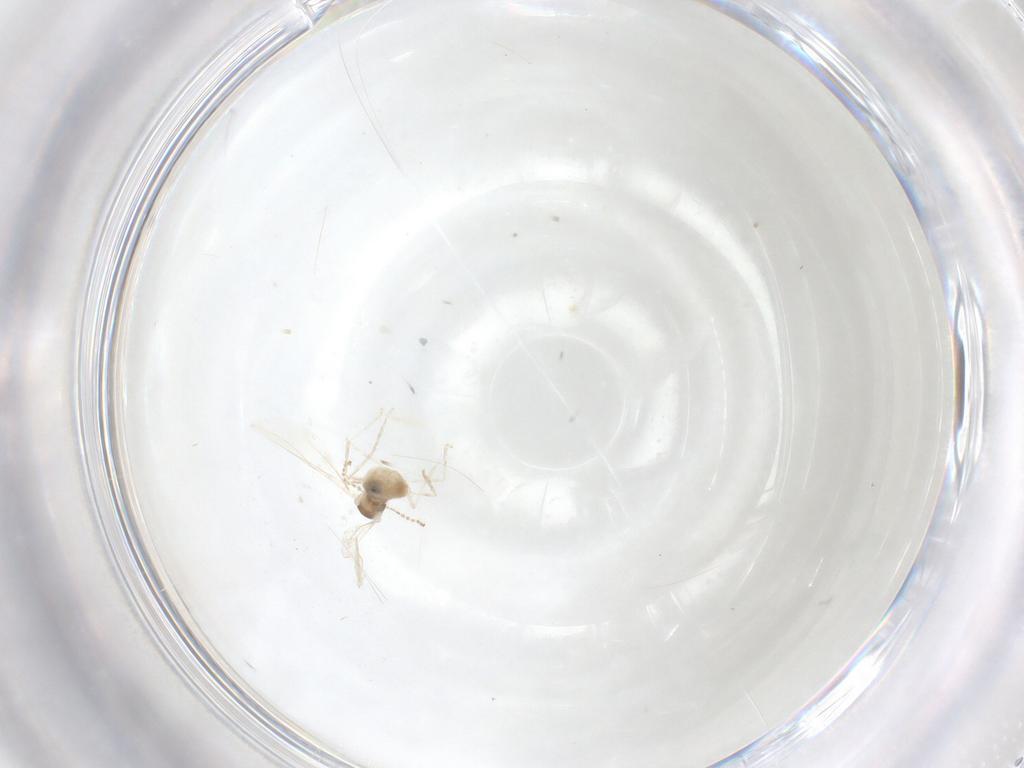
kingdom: Animalia
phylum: Arthropoda
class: Insecta
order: Diptera
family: Cecidomyiidae
